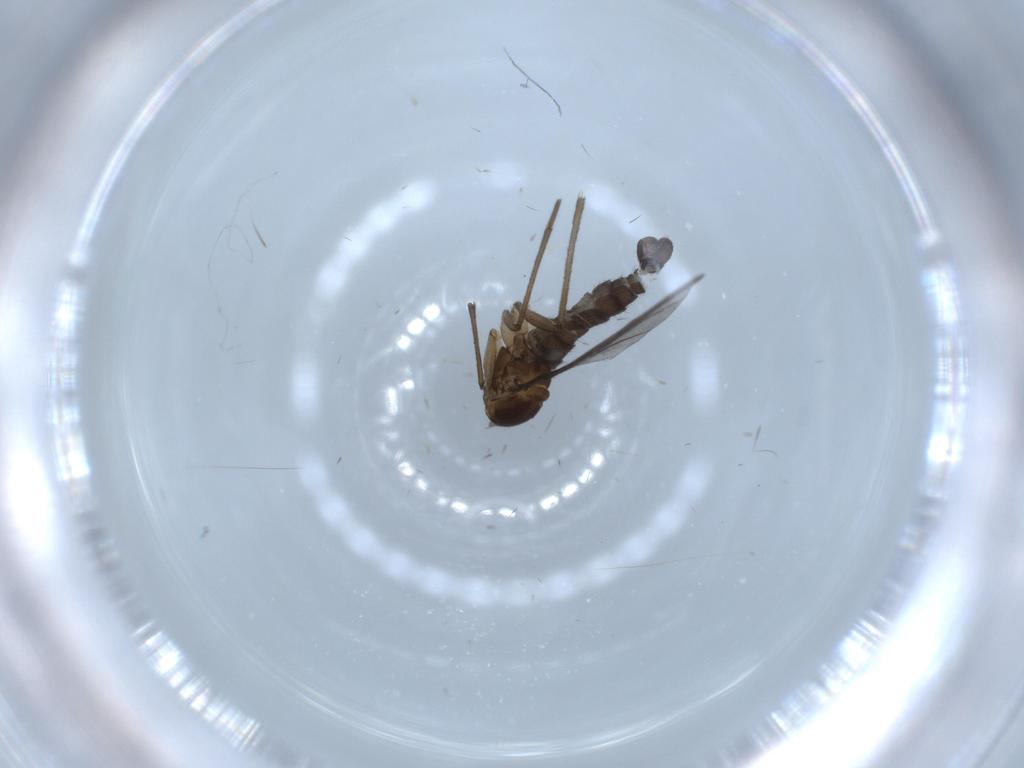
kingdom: Animalia
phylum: Arthropoda
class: Insecta
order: Diptera
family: Sciaridae
